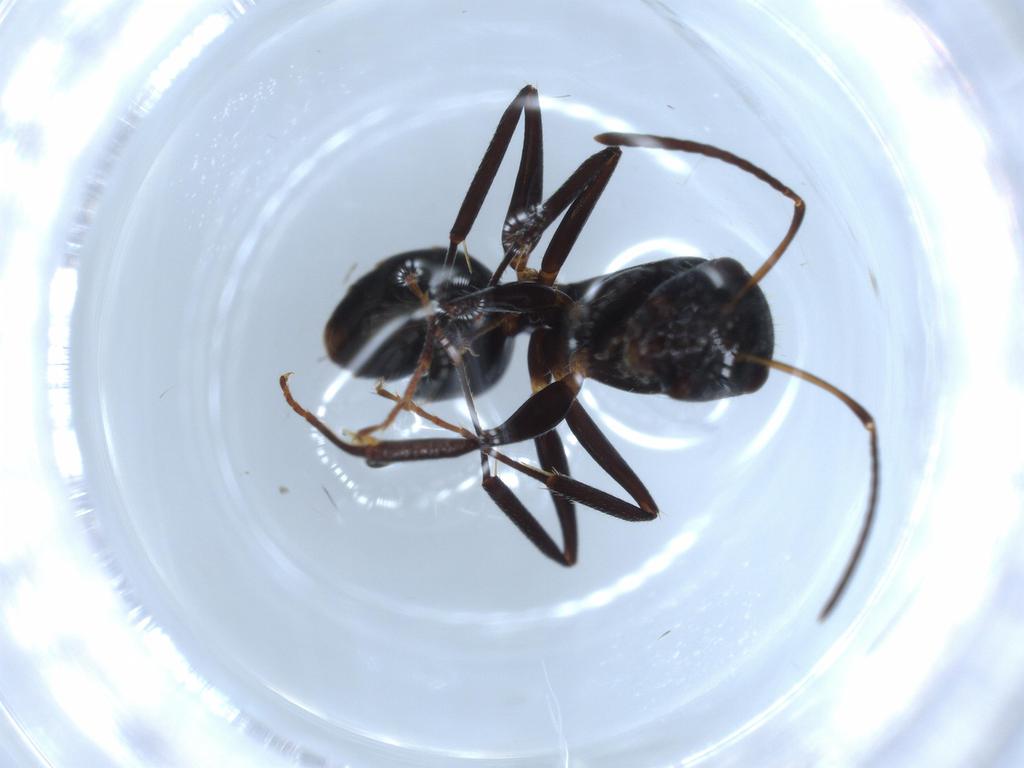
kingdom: Animalia
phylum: Arthropoda
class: Insecta
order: Hymenoptera
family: Formicidae
